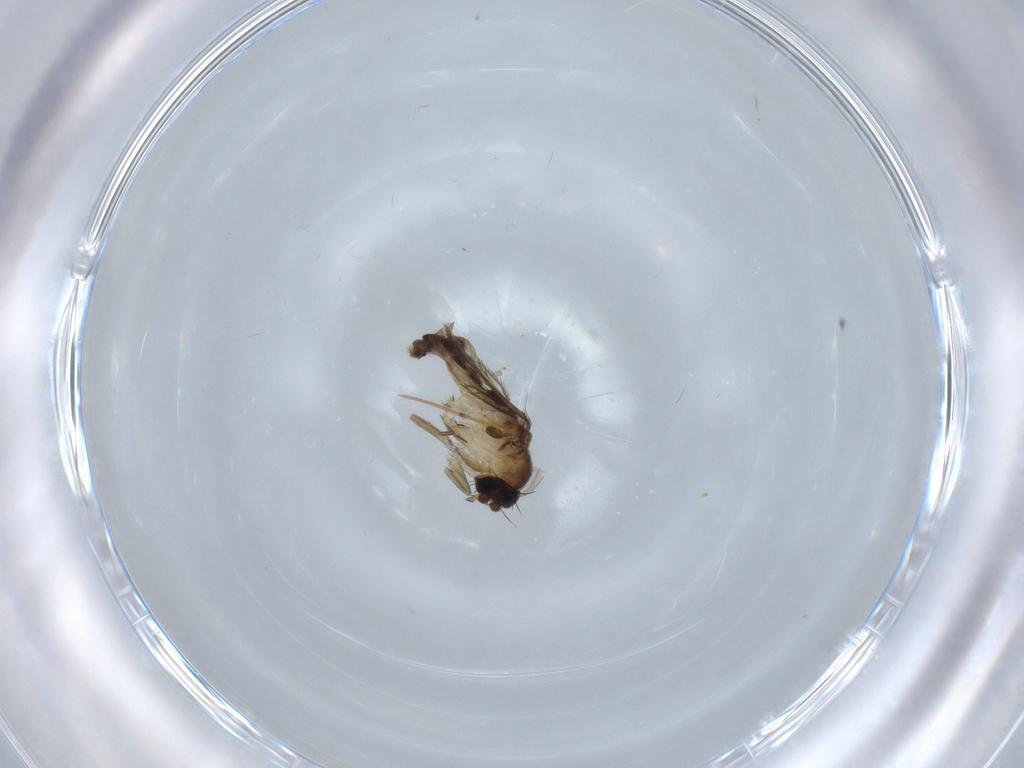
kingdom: Animalia
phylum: Arthropoda
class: Insecta
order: Diptera
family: Phoridae
